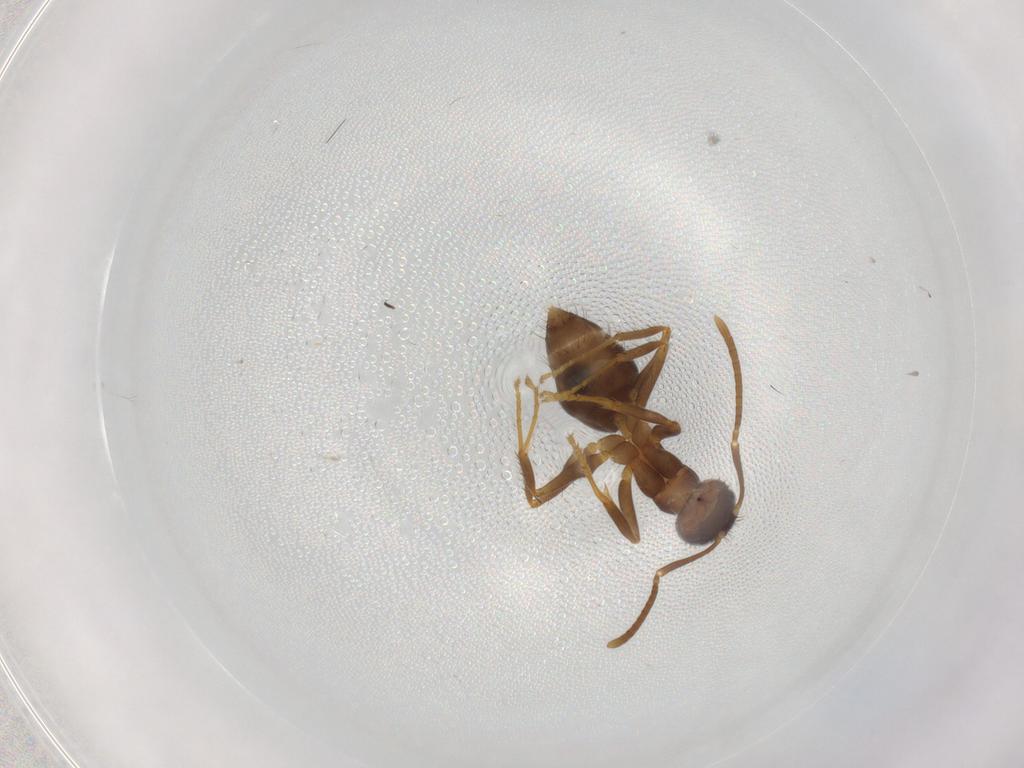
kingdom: Animalia
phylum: Arthropoda
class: Insecta
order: Hymenoptera
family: Formicidae
